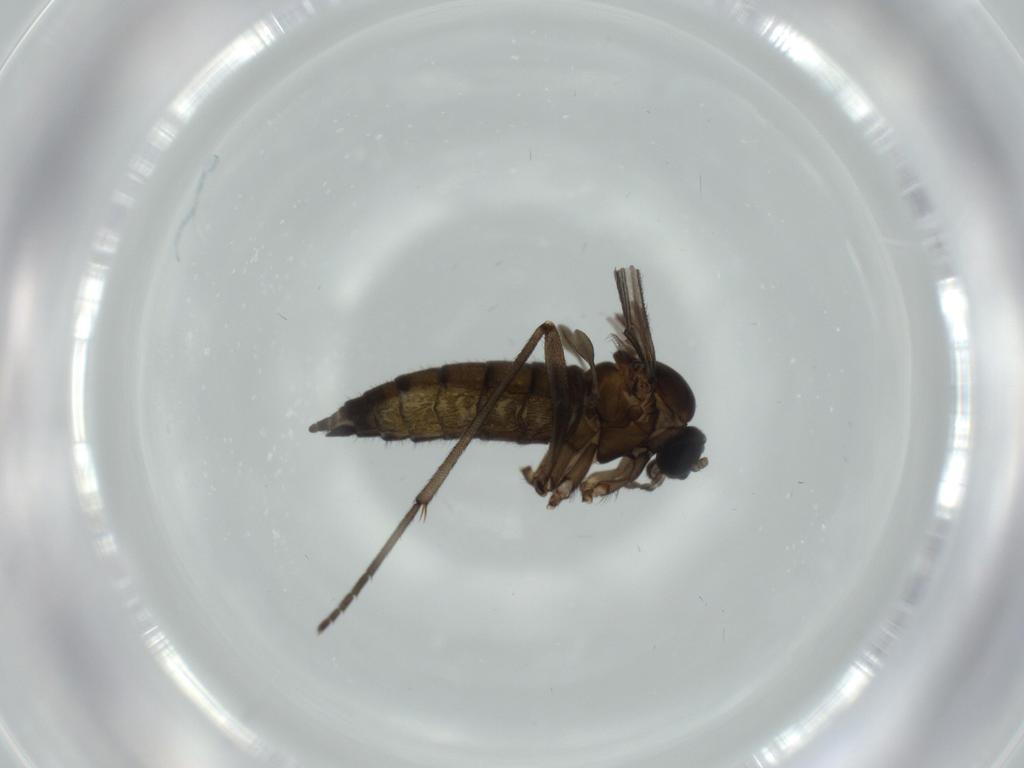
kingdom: Animalia
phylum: Arthropoda
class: Insecta
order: Diptera
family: Sciaridae
